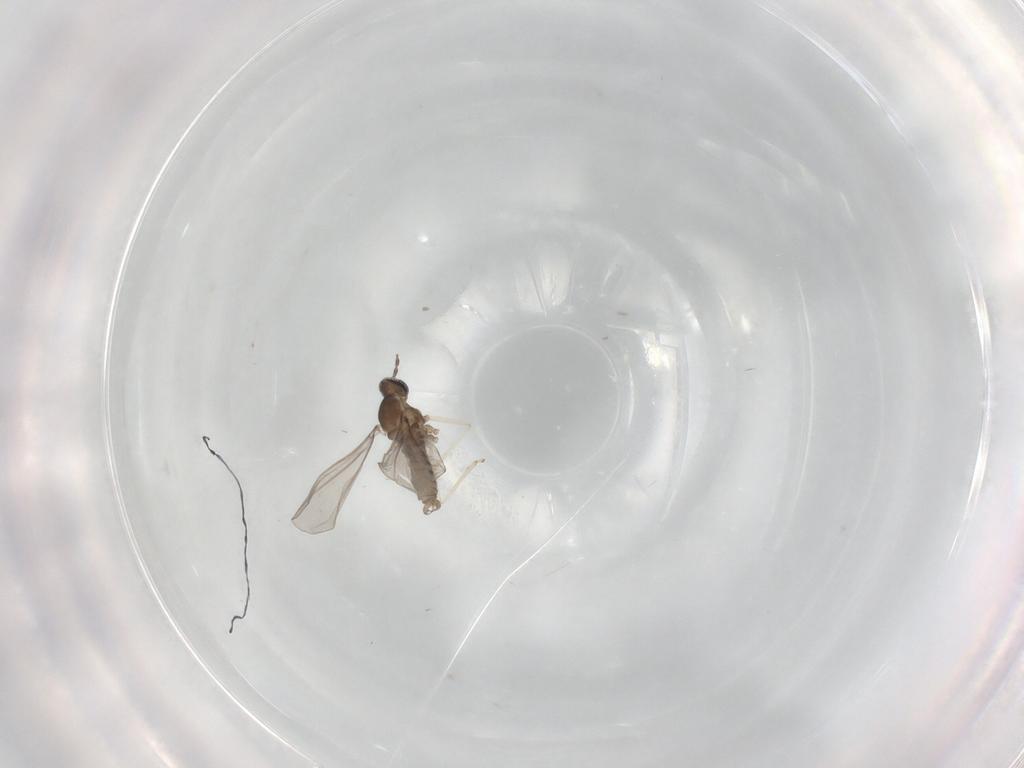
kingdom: Animalia
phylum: Arthropoda
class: Insecta
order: Diptera
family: Cecidomyiidae
